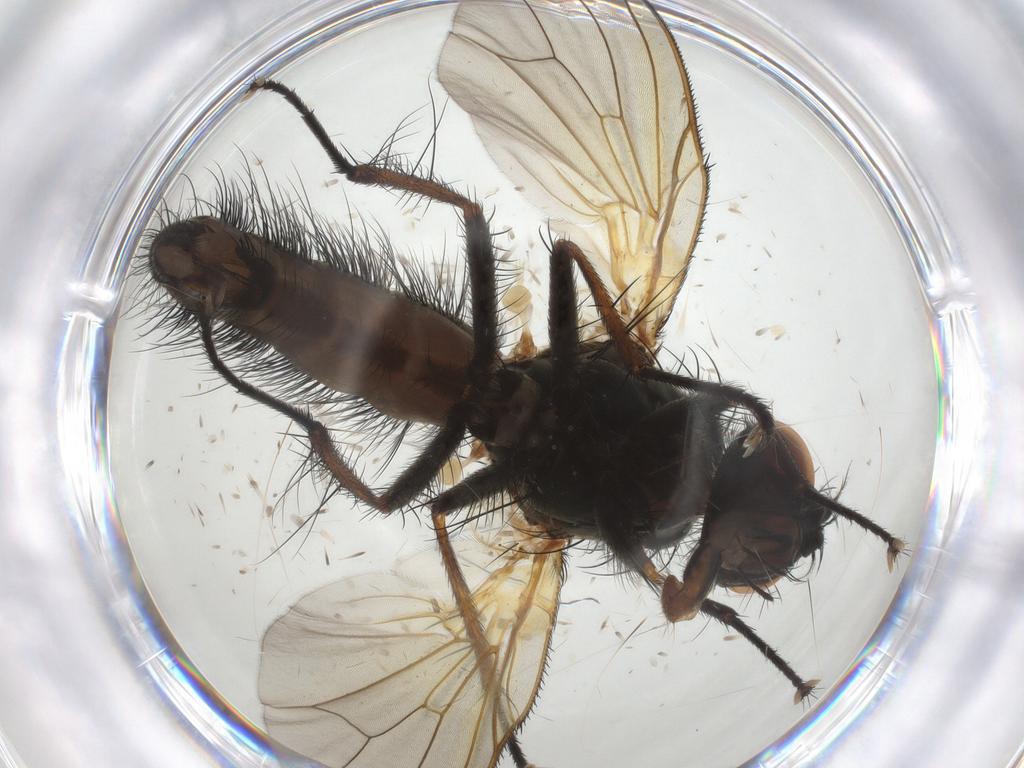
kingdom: Animalia
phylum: Arthropoda
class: Insecta
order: Diptera
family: Anthomyiidae
